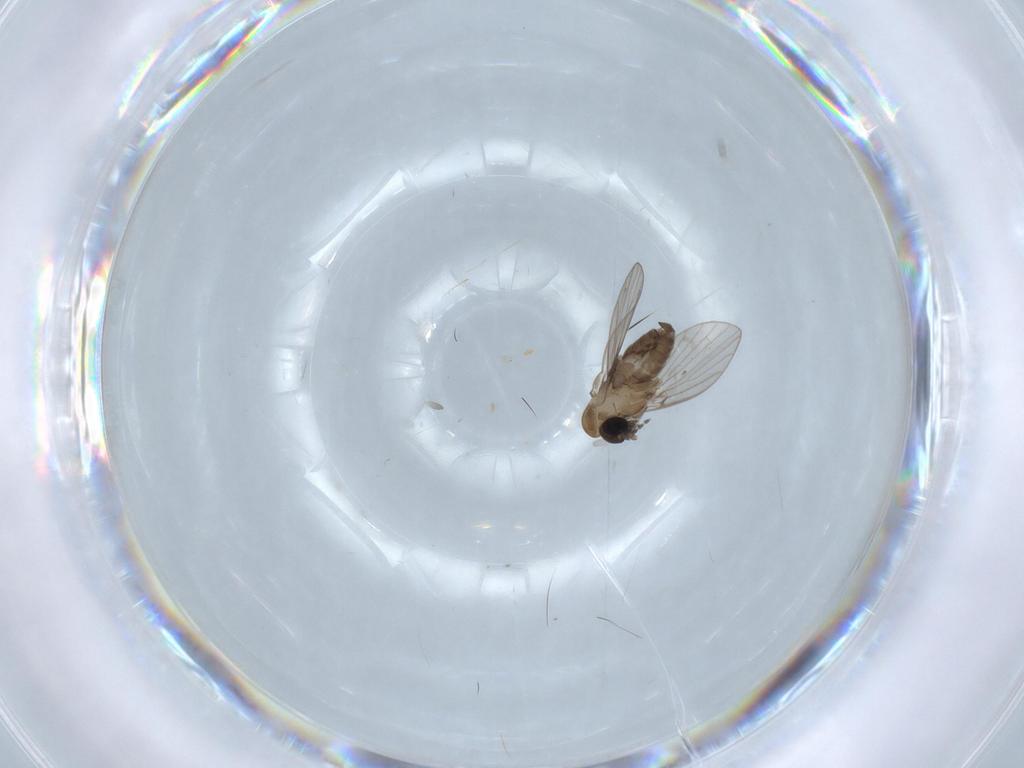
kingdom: Animalia
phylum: Arthropoda
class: Insecta
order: Diptera
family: Psychodidae
